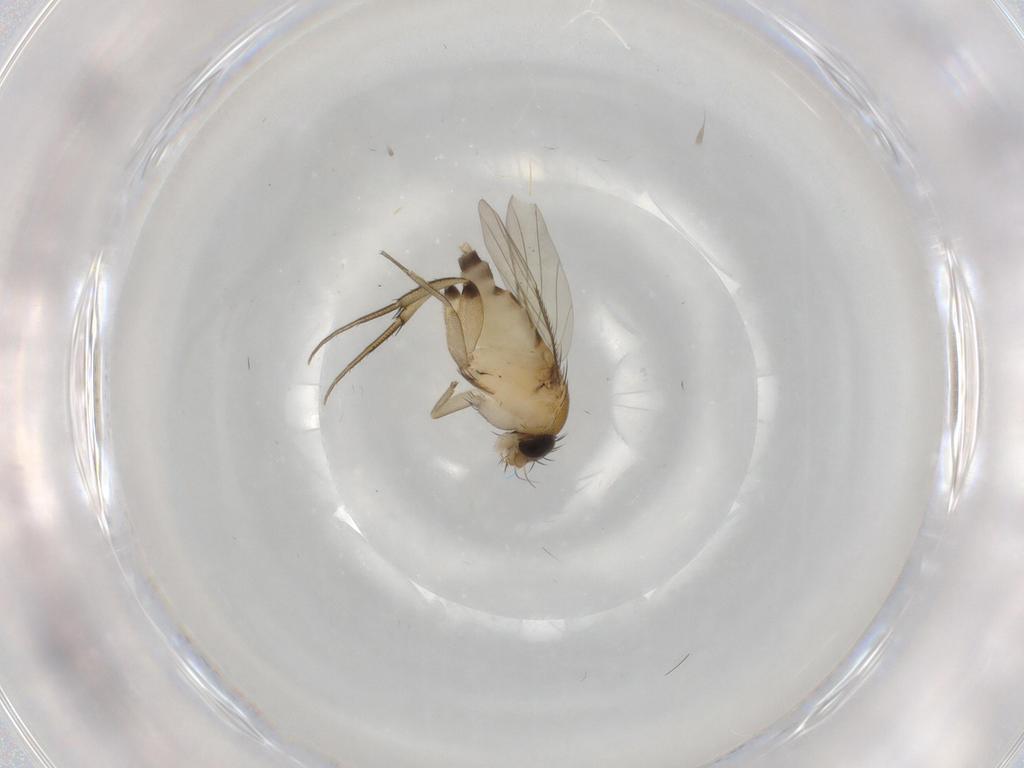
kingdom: Animalia
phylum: Arthropoda
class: Insecta
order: Diptera
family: Phoridae
